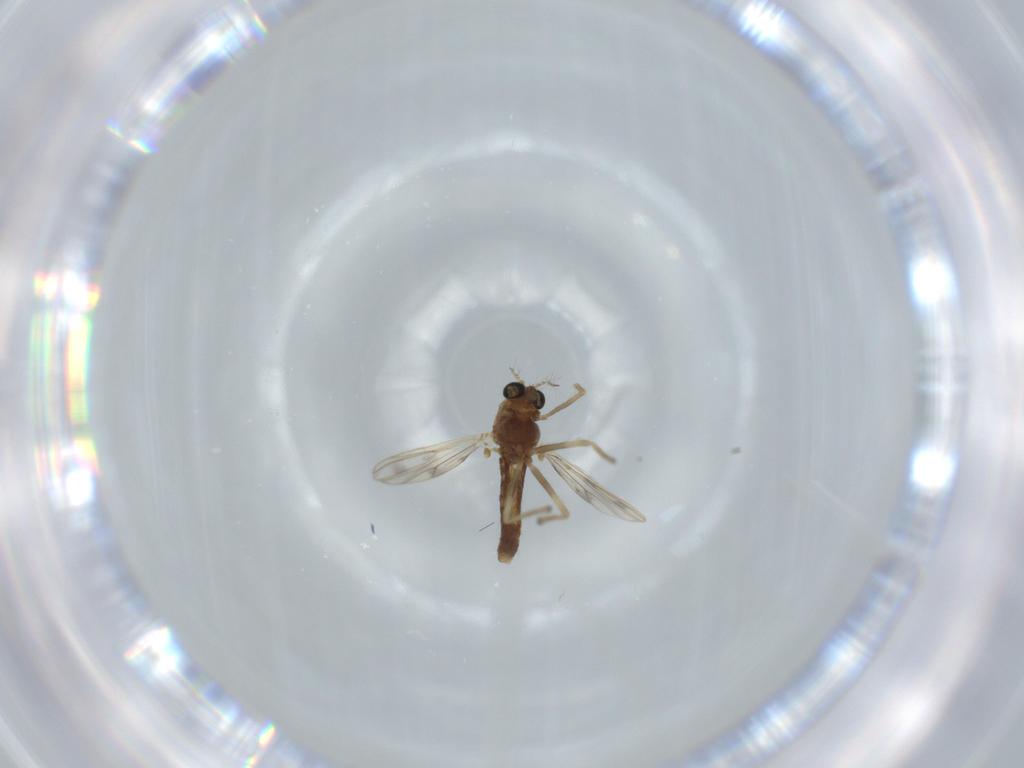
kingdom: Animalia
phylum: Arthropoda
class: Insecta
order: Diptera
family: Chironomidae
